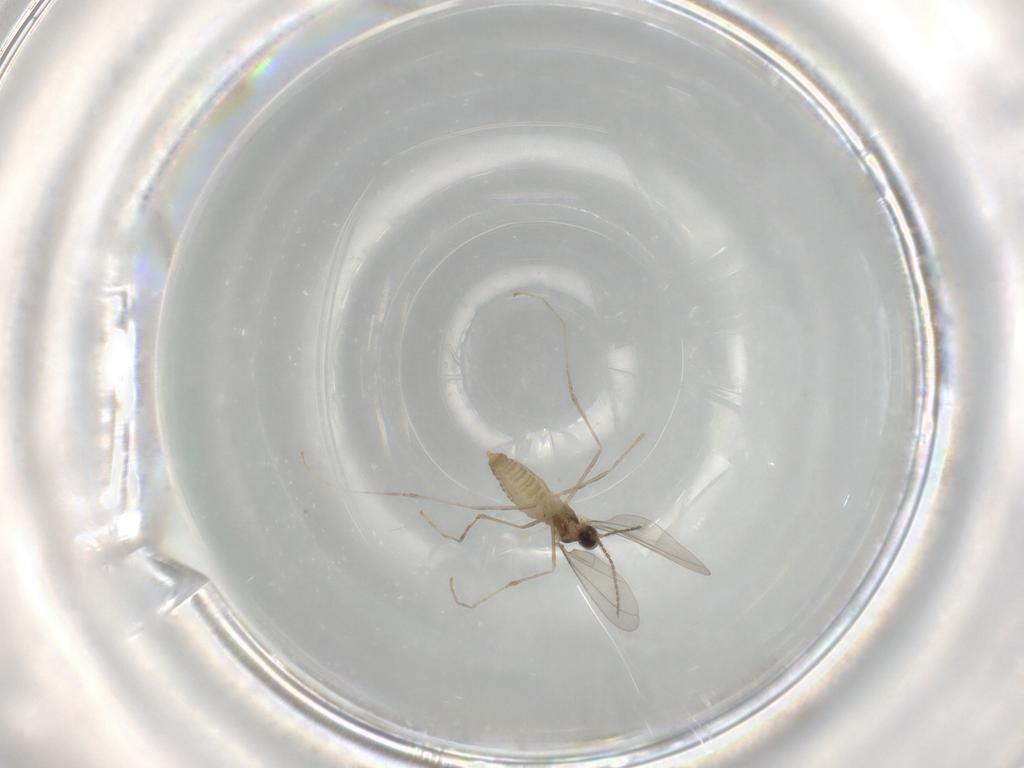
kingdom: Animalia
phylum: Arthropoda
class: Insecta
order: Diptera
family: Cecidomyiidae
